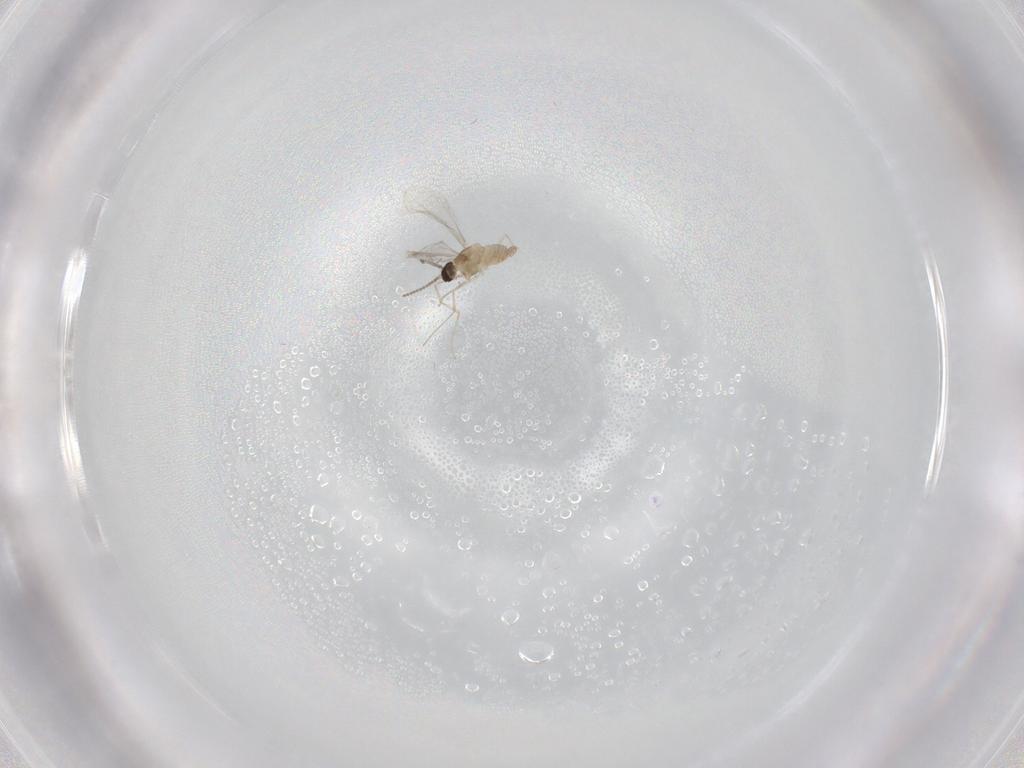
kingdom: Animalia
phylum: Arthropoda
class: Insecta
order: Diptera
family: Cecidomyiidae
